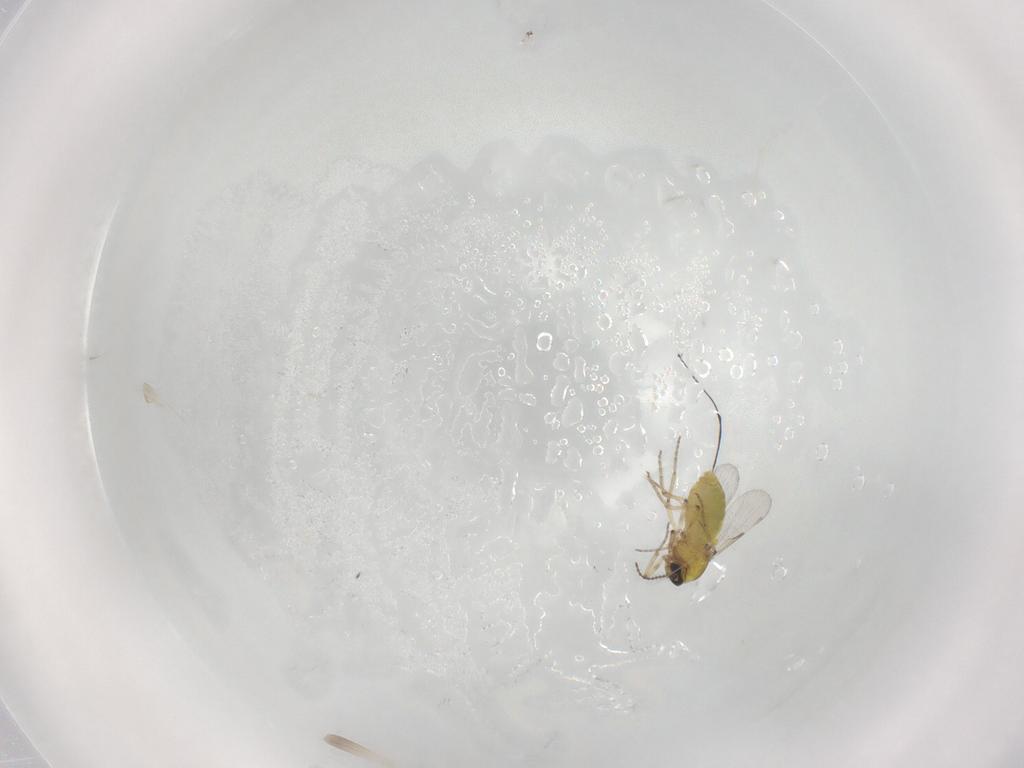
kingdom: Animalia
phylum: Arthropoda
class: Insecta
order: Diptera
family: Ceratopogonidae
